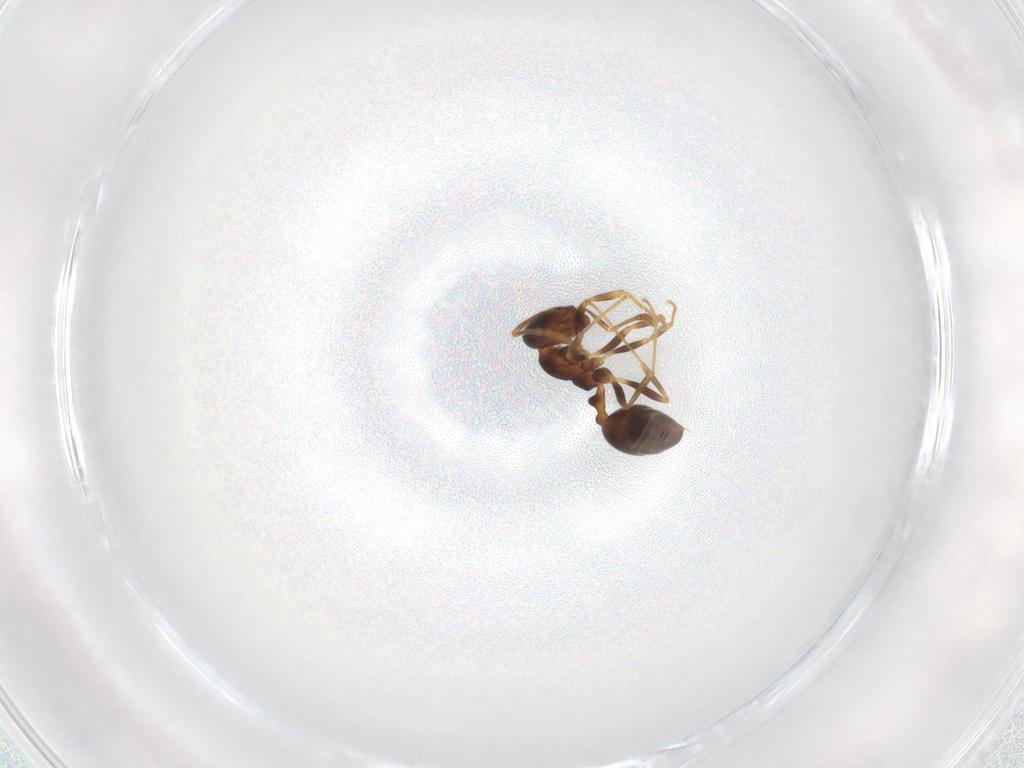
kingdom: Animalia
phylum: Arthropoda
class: Insecta
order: Hymenoptera
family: Formicidae
